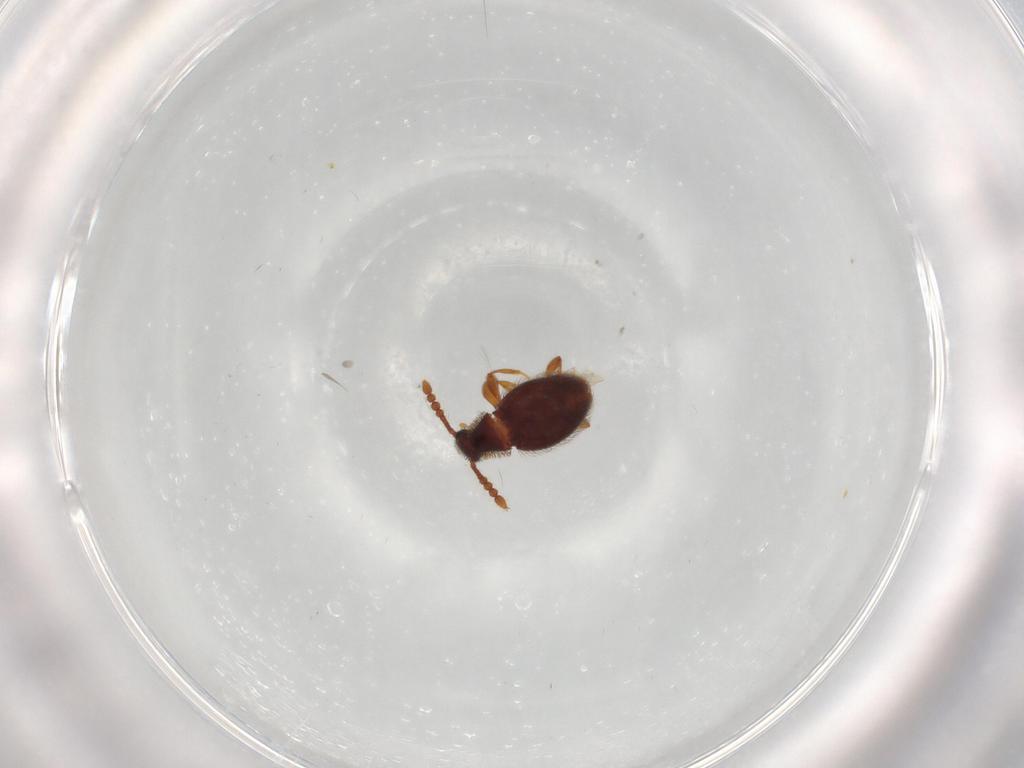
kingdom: Animalia
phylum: Arthropoda
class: Insecta
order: Coleoptera
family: Staphylinidae
